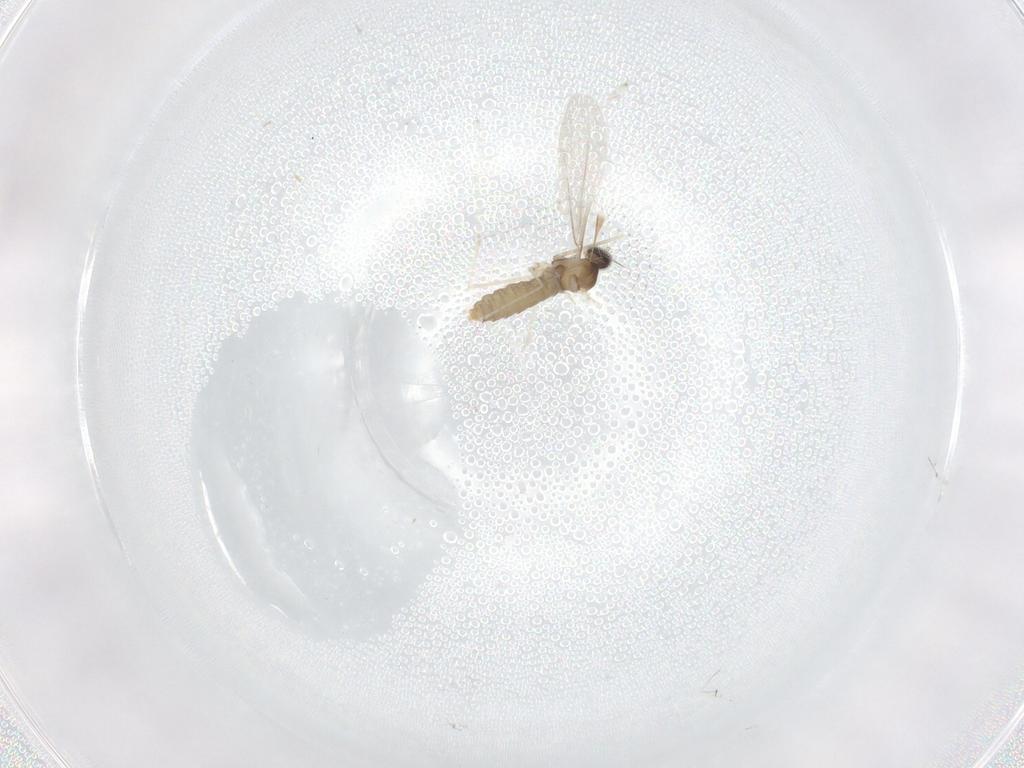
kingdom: Animalia
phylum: Arthropoda
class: Insecta
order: Diptera
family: Cecidomyiidae
